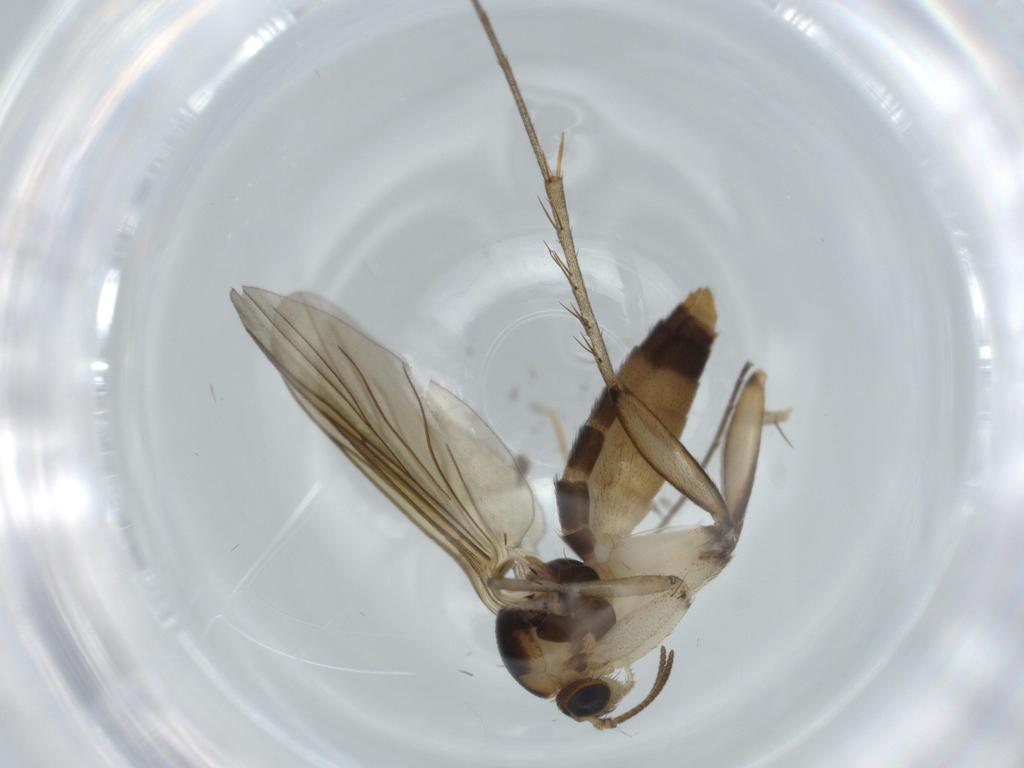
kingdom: Animalia
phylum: Arthropoda
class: Insecta
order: Diptera
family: Mycetophilidae
